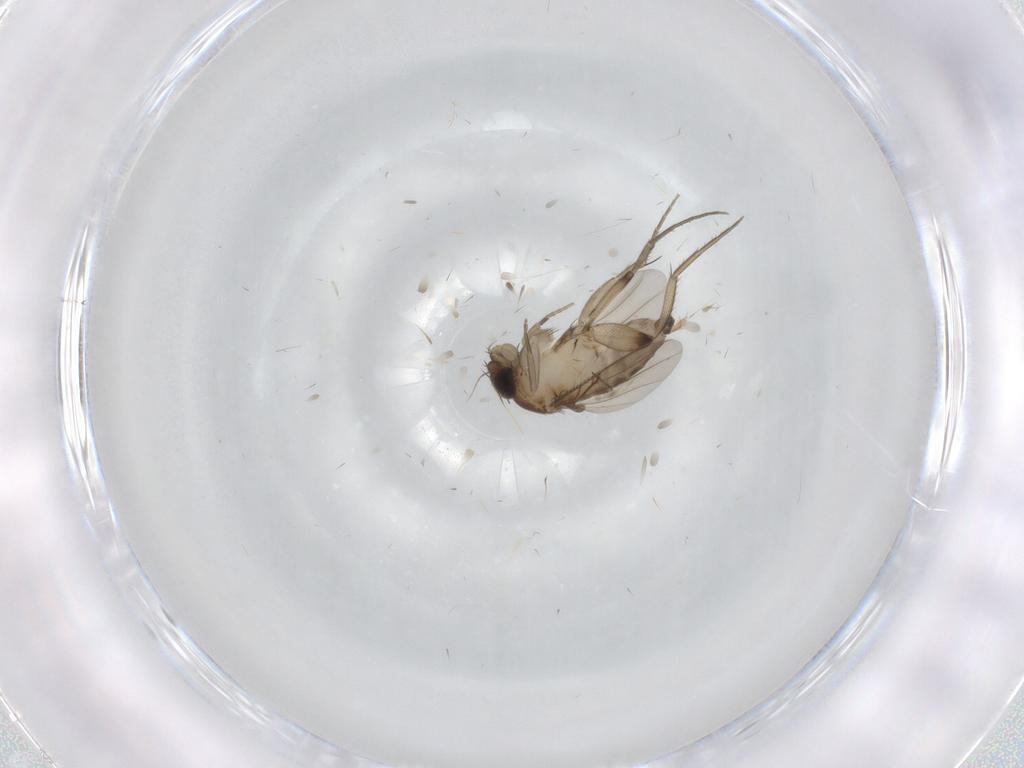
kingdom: Animalia
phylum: Arthropoda
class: Insecta
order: Diptera
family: Phoridae
